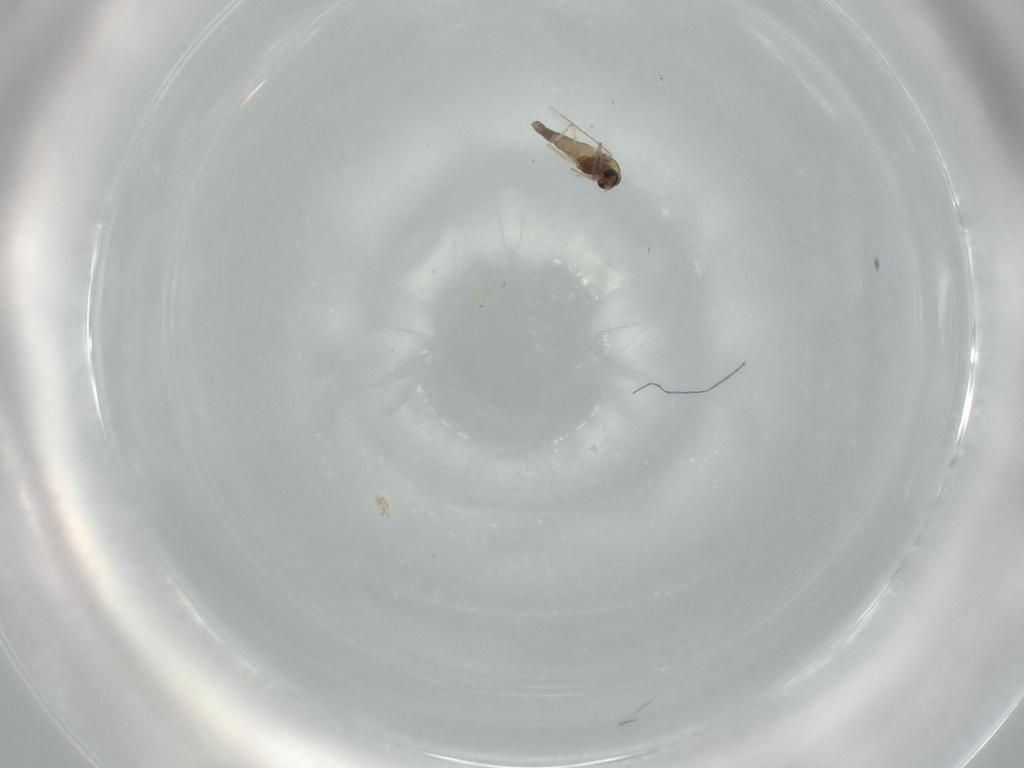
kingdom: Animalia
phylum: Arthropoda
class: Insecta
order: Diptera
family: Chironomidae
